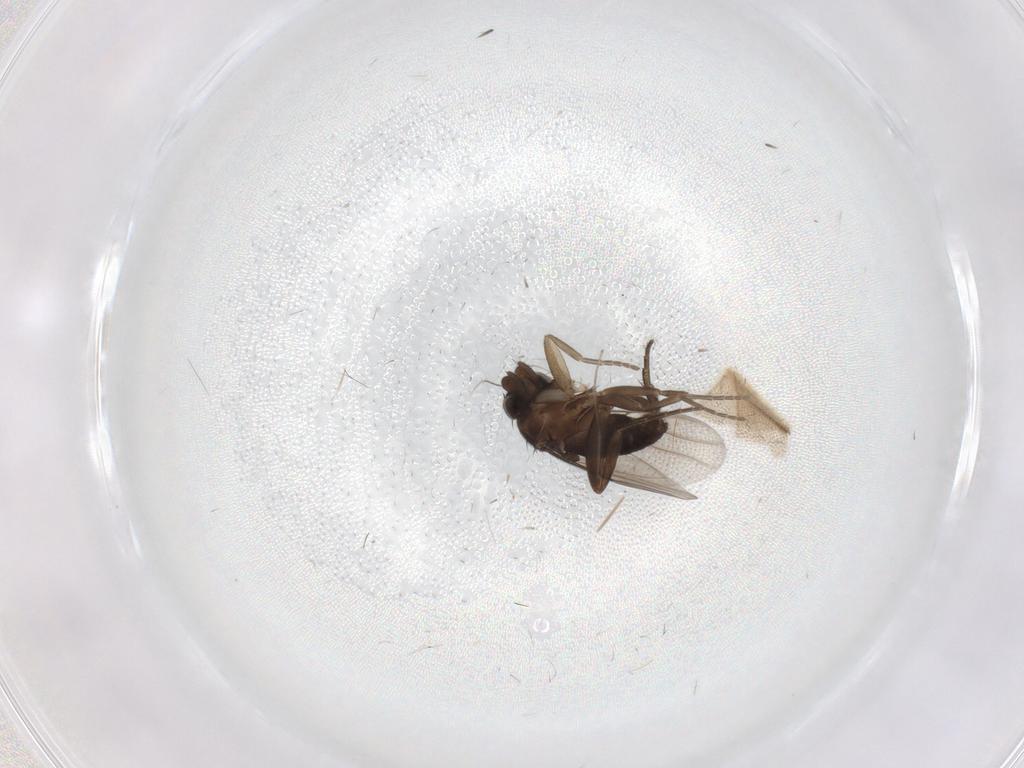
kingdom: Animalia
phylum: Arthropoda
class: Insecta
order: Diptera
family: Phoridae
